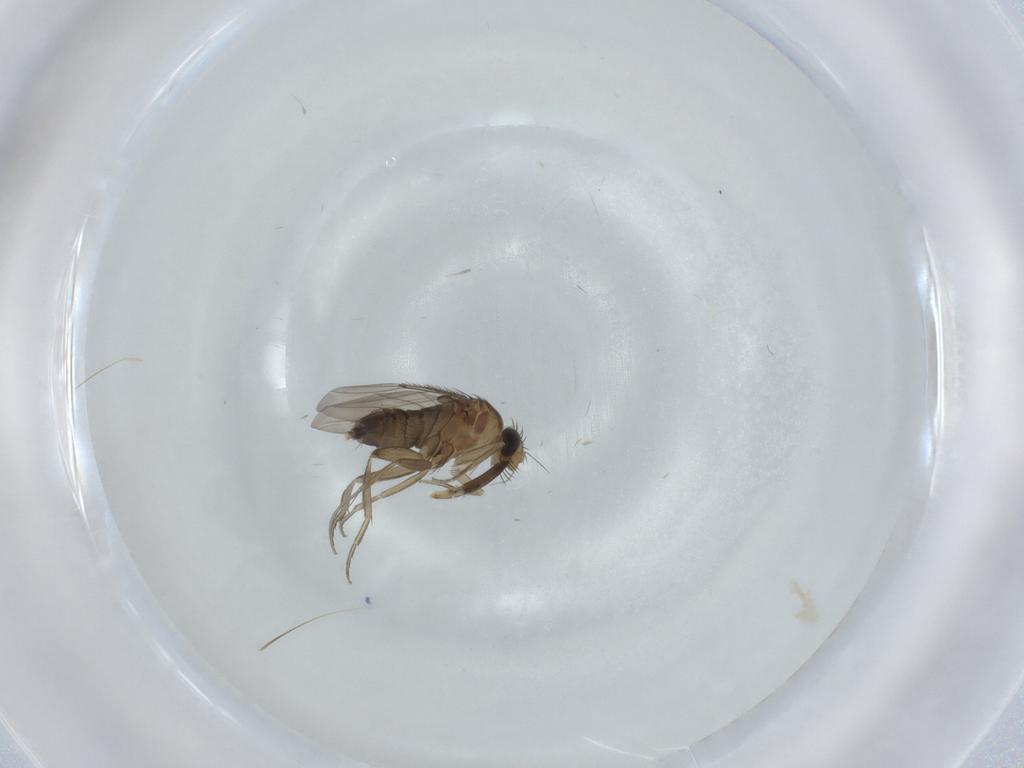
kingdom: Animalia
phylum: Arthropoda
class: Insecta
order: Diptera
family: Phoridae
